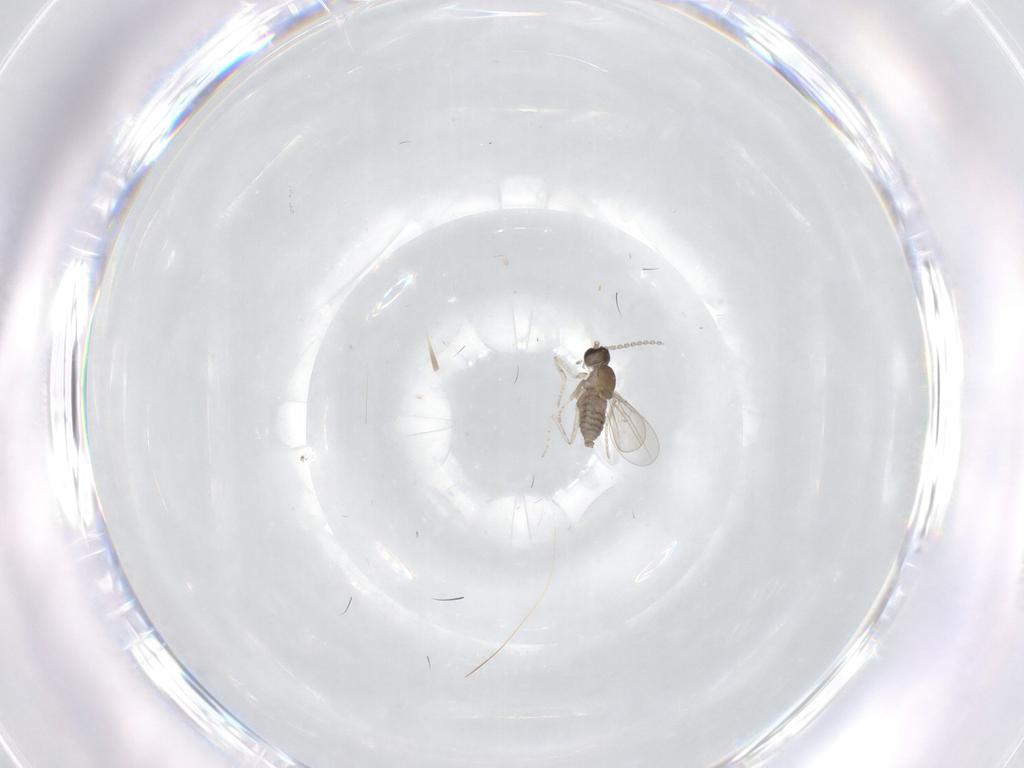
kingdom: Animalia
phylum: Arthropoda
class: Insecta
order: Diptera
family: Cecidomyiidae
